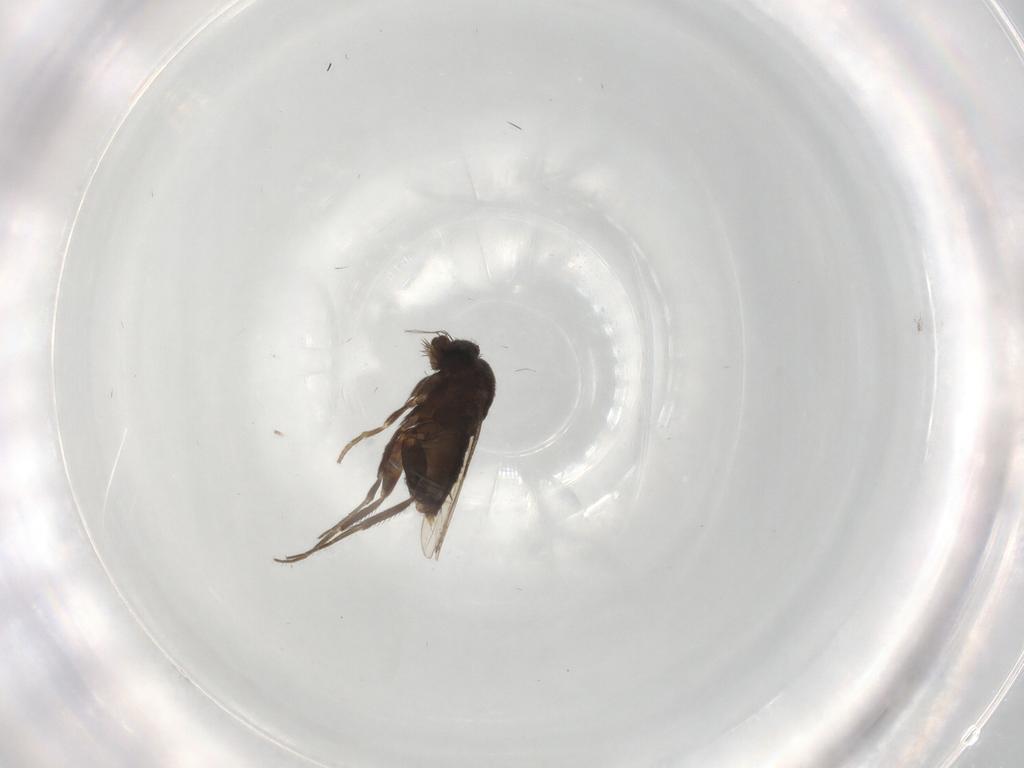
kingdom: Animalia
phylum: Arthropoda
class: Insecta
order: Diptera
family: Phoridae
